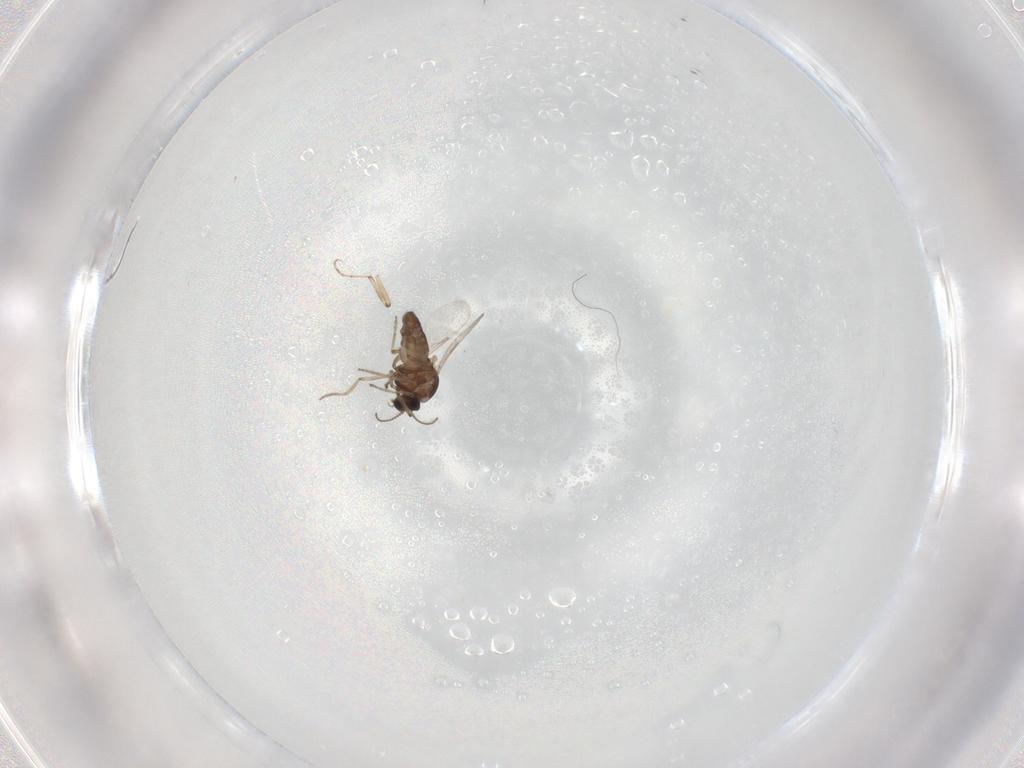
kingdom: Animalia
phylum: Arthropoda
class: Insecta
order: Diptera
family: Ceratopogonidae
